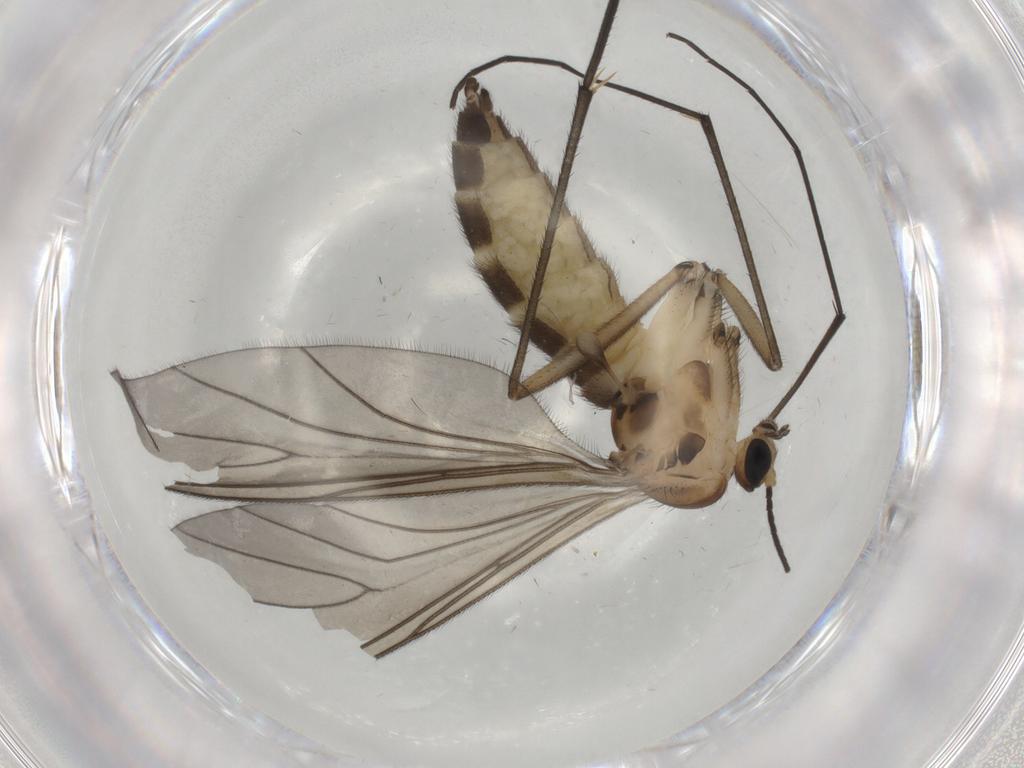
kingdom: Animalia
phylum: Arthropoda
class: Insecta
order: Diptera
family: Sciaridae
